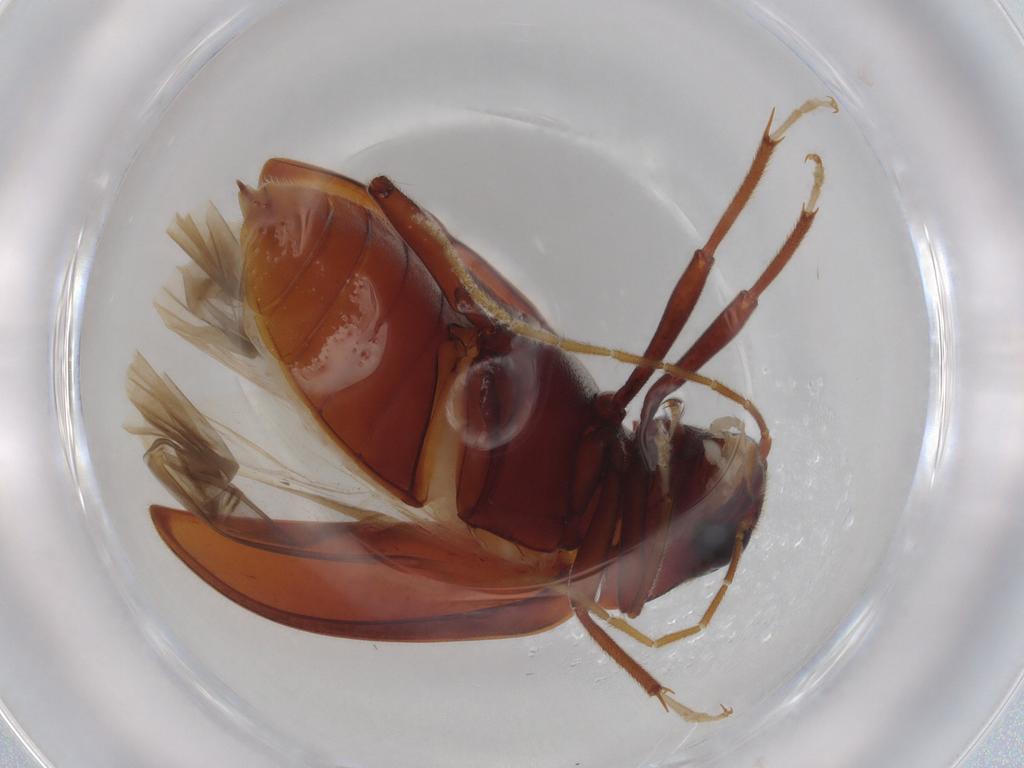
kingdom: Animalia
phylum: Arthropoda
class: Insecta
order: Coleoptera
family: Ptilodactylidae
